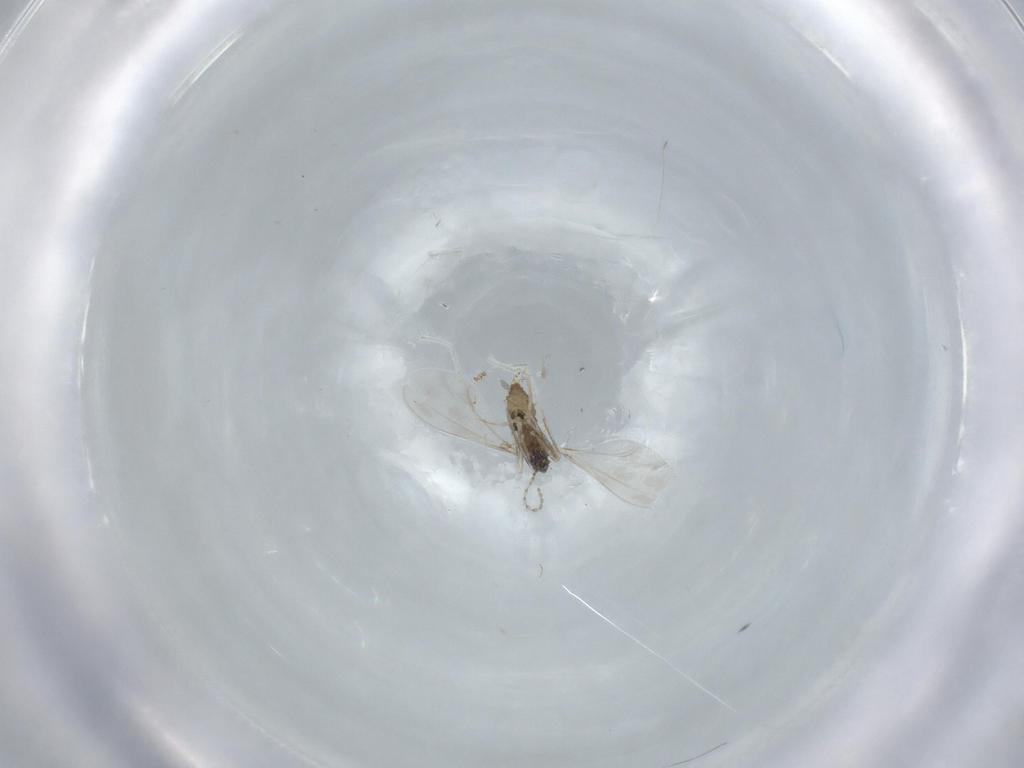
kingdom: Animalia
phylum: Arthropoda
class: Insecta
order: Diptera
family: Cecidomyiidae
